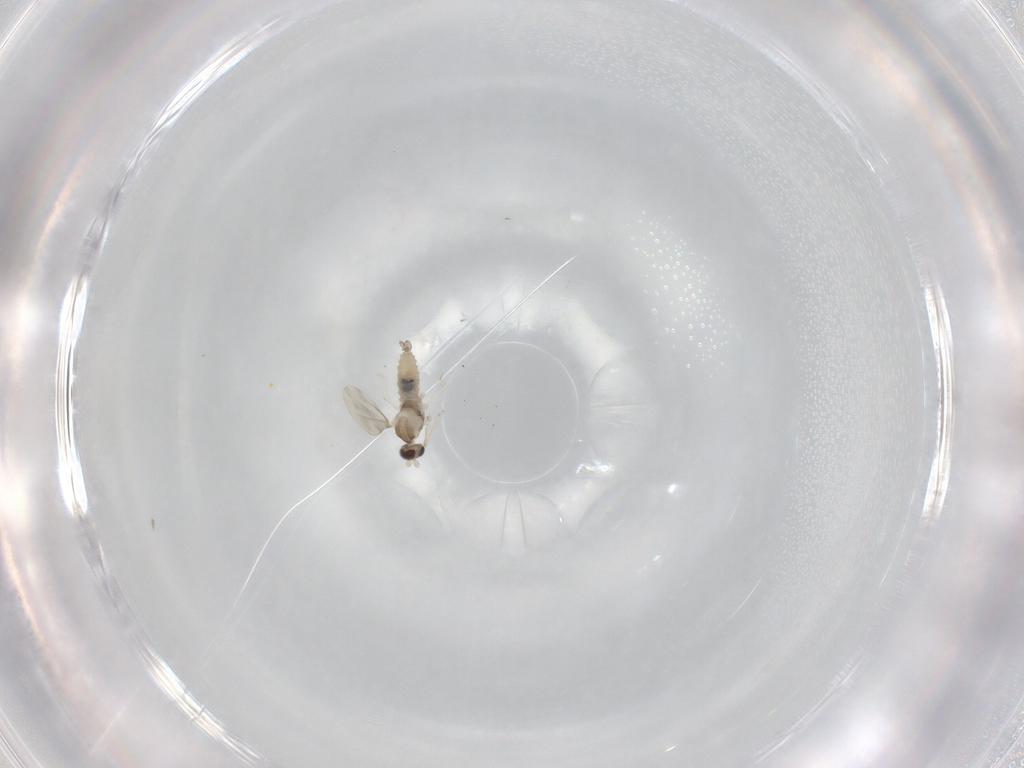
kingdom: Animalia
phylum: Arthropoda
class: Insecta
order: Diptera
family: Cecidomyiidae
